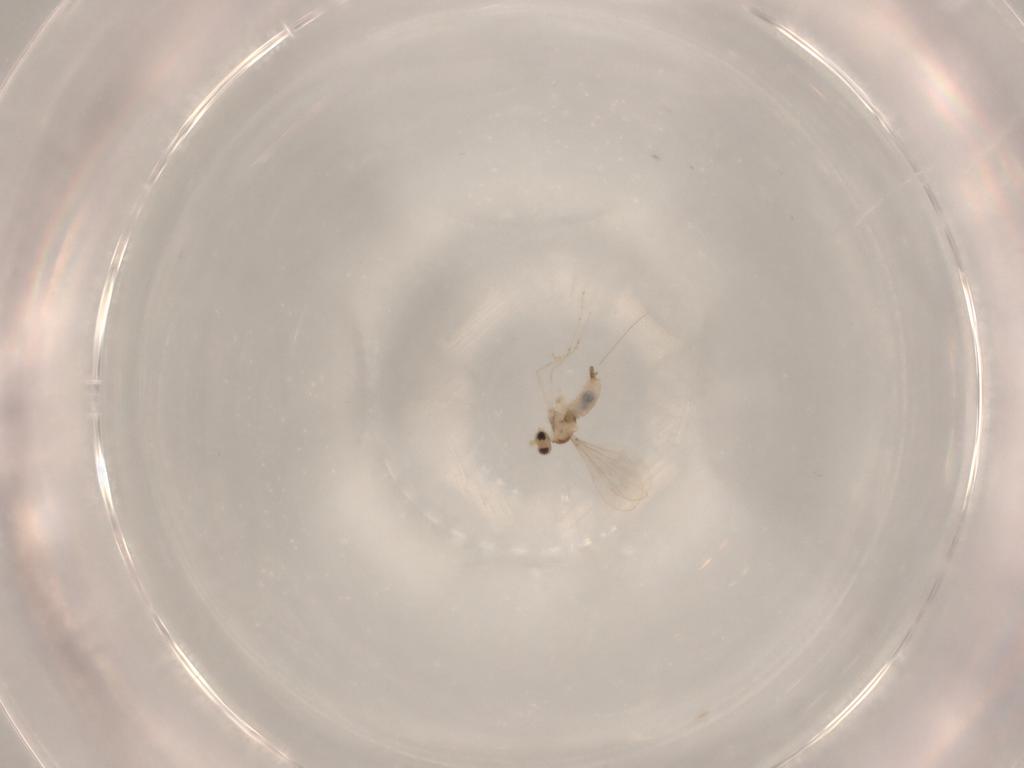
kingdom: Animalia
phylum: Arthropoda
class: Insecta
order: Diptera
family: Cecidomyiidae
